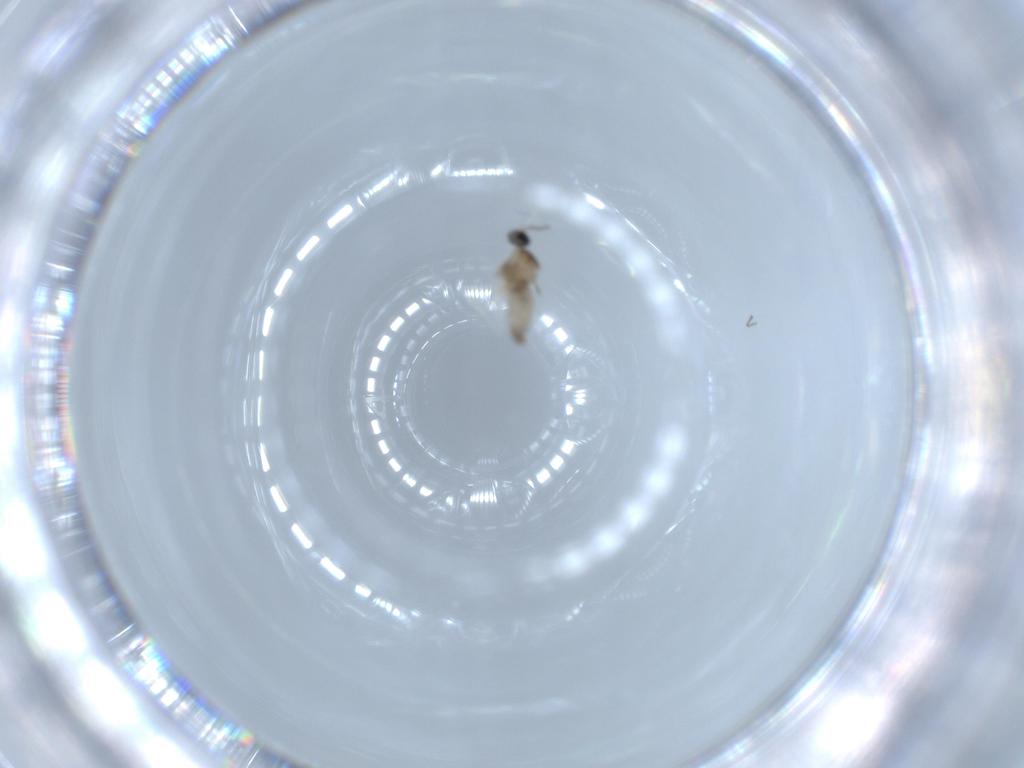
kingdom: Animalia
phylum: Arthropoda
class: Insecta
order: Diptera
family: Cecidomyiidae
